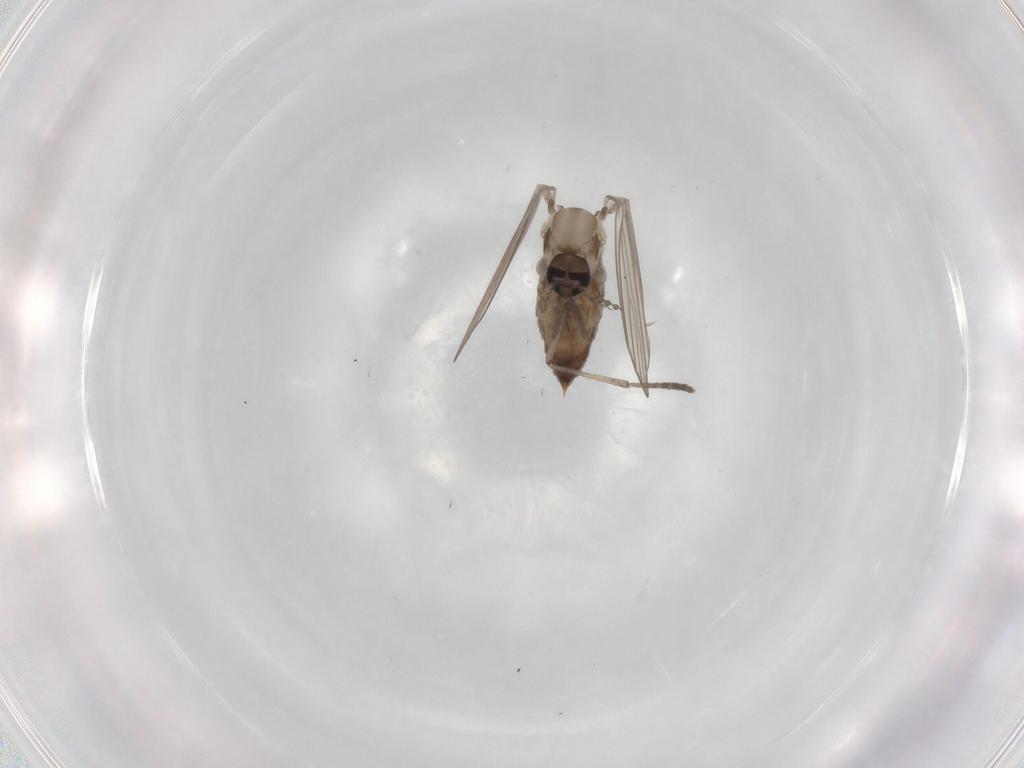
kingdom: Animalia
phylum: Arthropoda
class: Insecta
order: Diptera
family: Psychodidae
